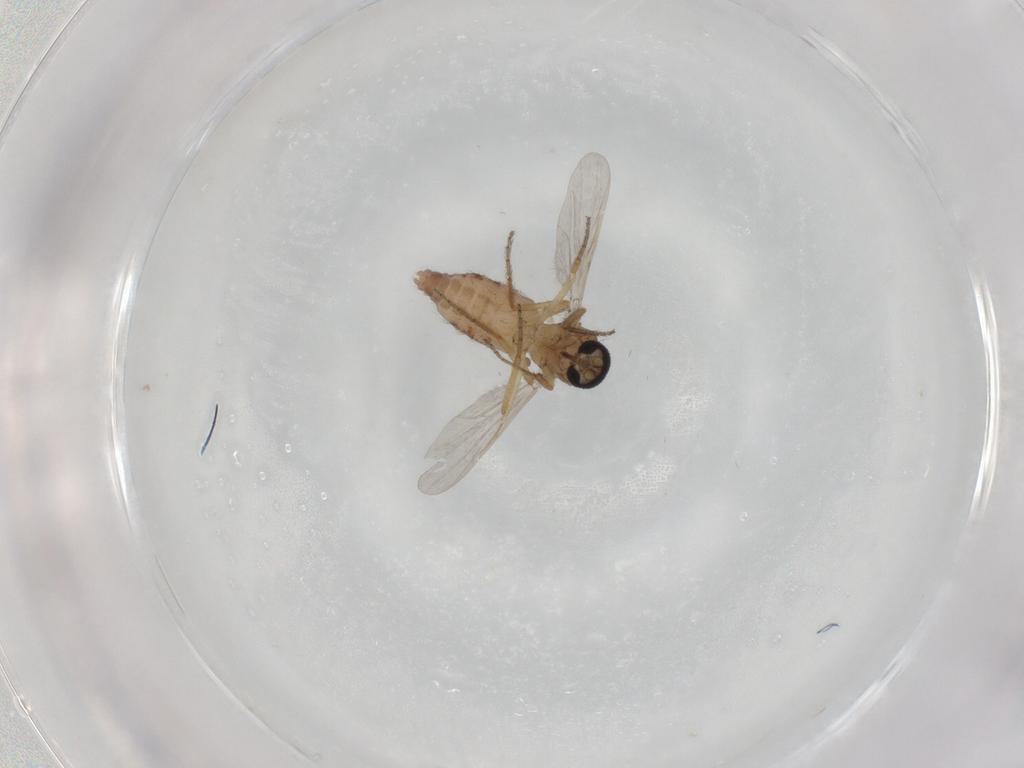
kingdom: Animalia
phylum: Arthropoda
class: Insecta
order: Diptera
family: Ceratopogonidae
